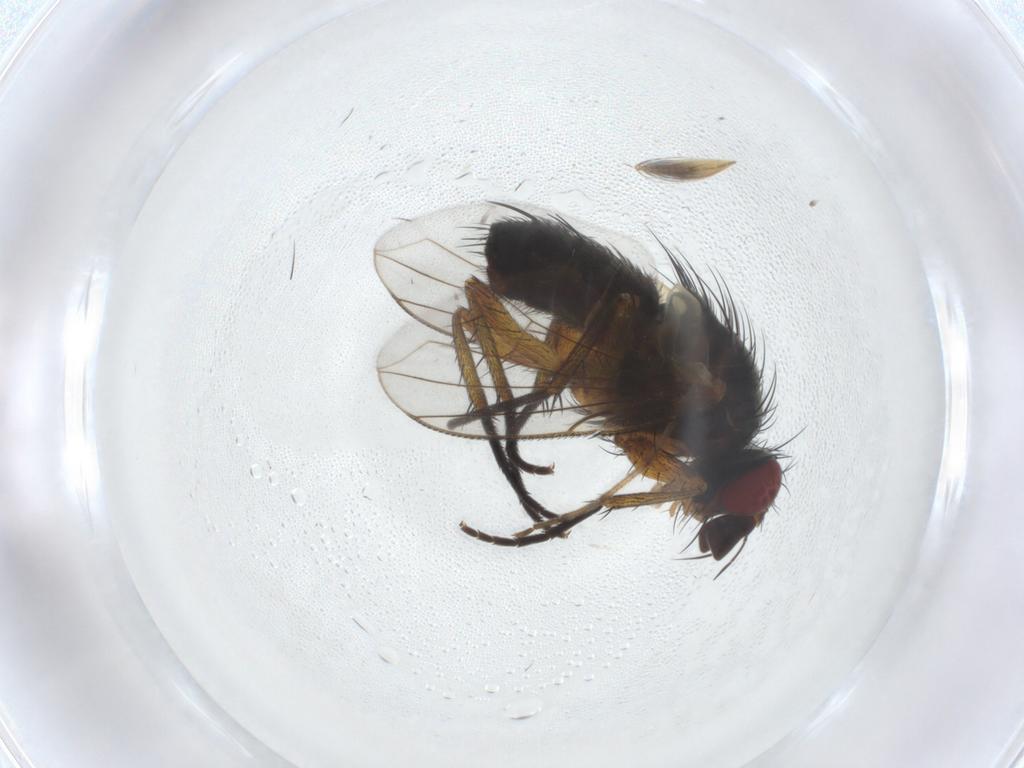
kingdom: Animalia
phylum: Arthropoda
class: Insecta
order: Diptera
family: Anthomyiidae
